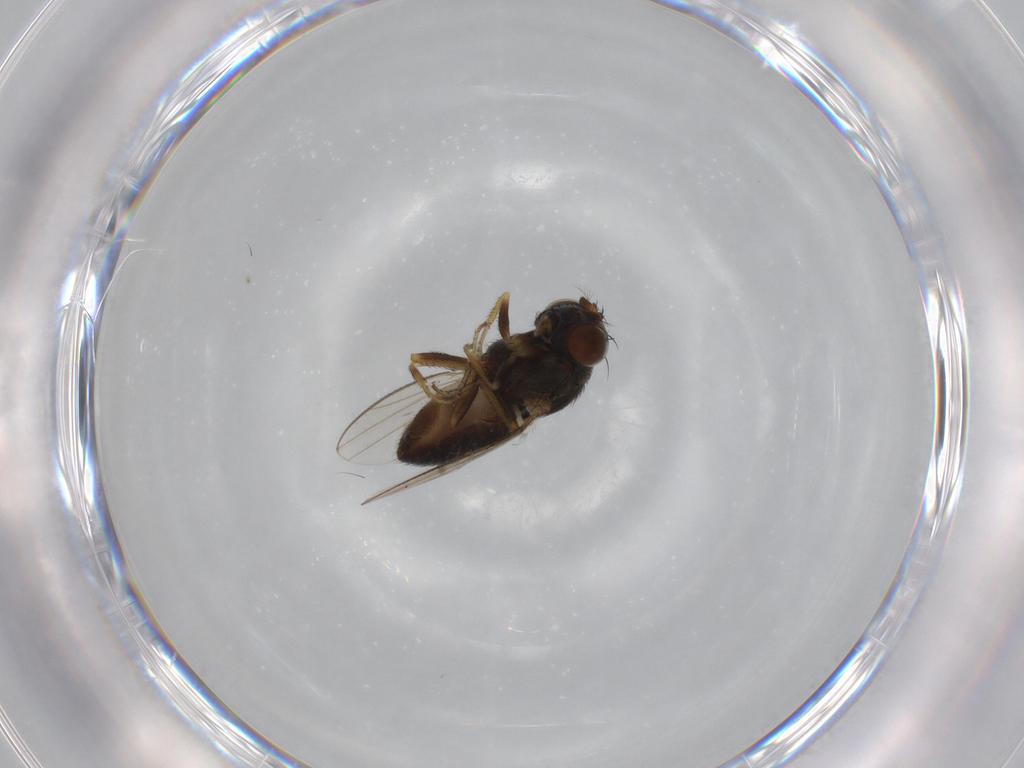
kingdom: Animalia
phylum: Arthropoda
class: Insecta
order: Diptera
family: Ephydridae
